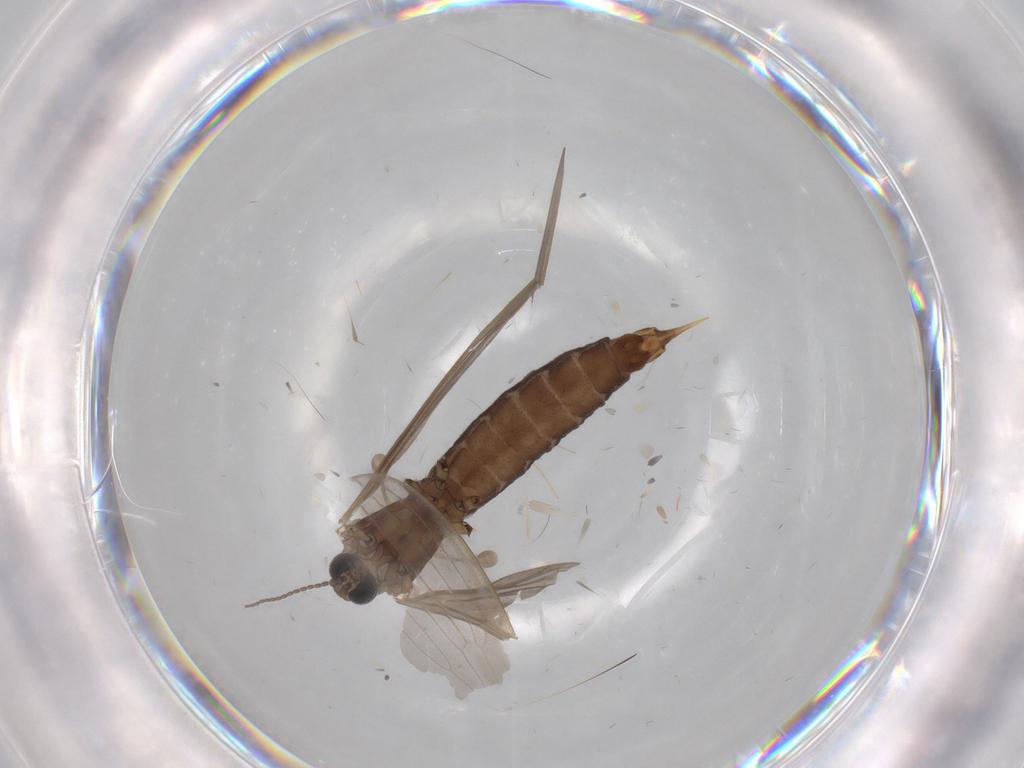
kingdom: Animalia
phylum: Arthropoda
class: Insecta
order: Diptera
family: Limoniidae
